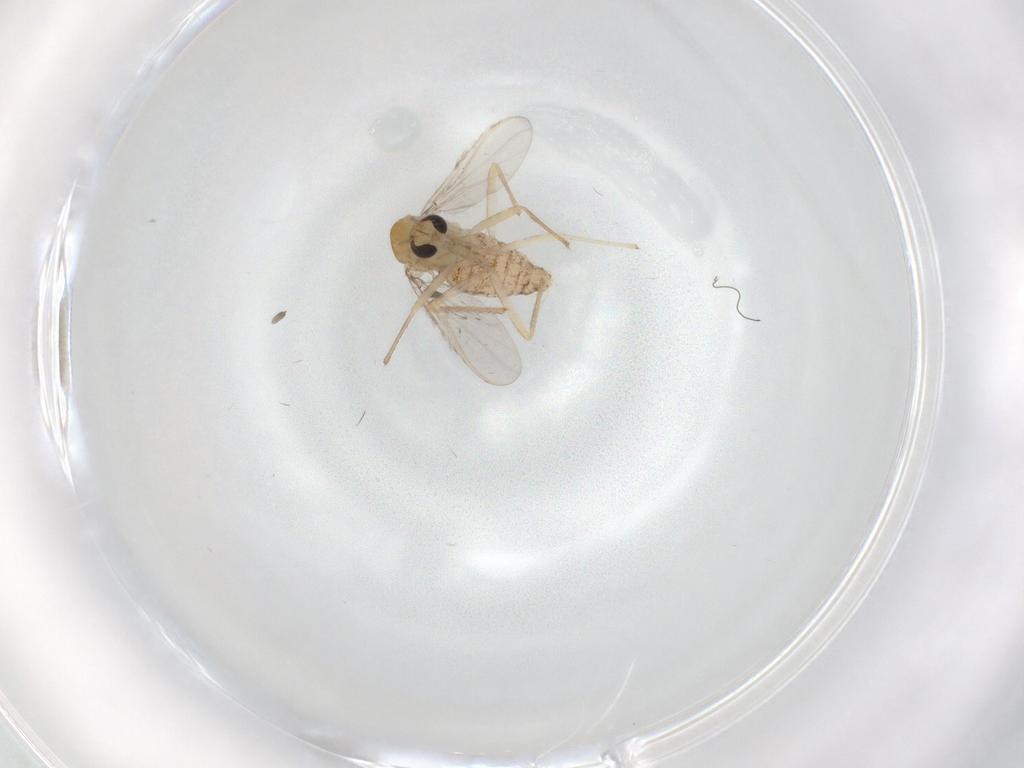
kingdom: Animalia
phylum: Arthropoda
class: Insecta
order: Diptera
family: Chironomidae
